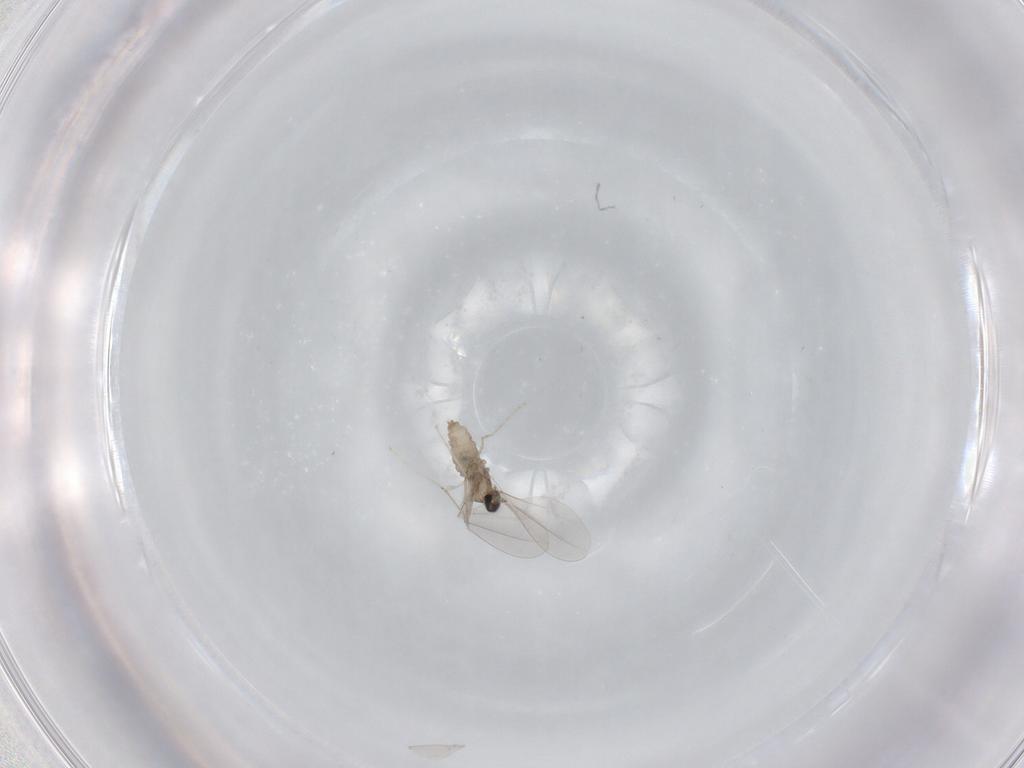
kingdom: Animalia
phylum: Arthropoda
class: Insecta
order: Diptera
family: Cecidomyiidae
